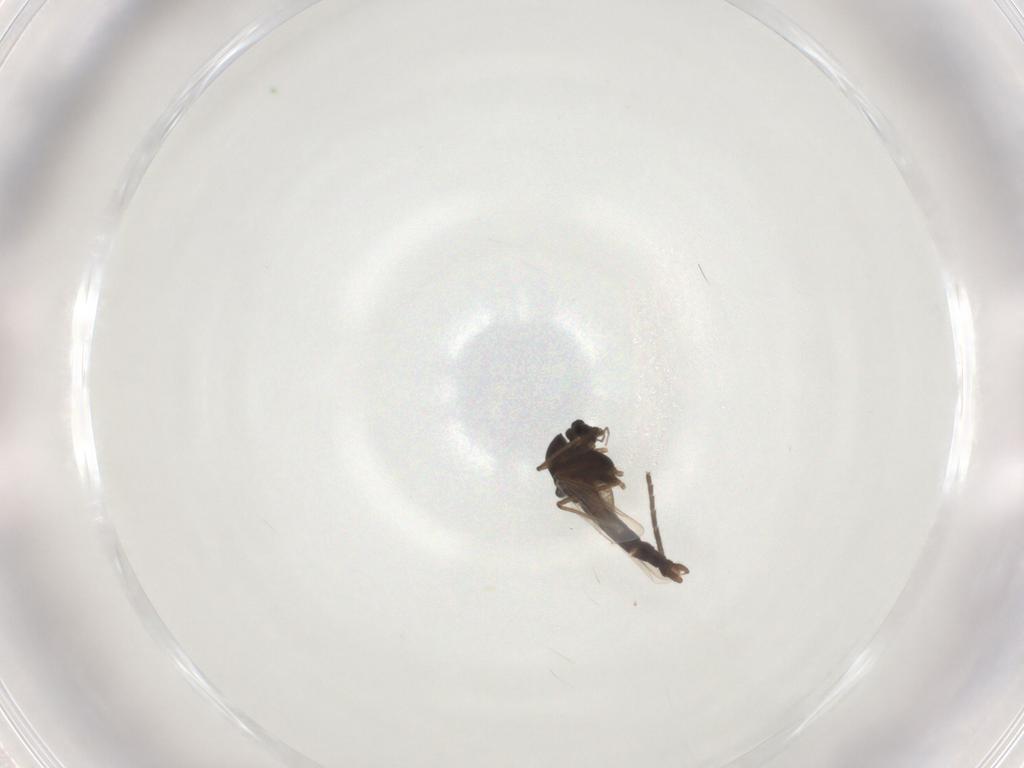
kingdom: Animalia
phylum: Arthropoda
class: Insecta
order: Diptera
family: Chironomidae
